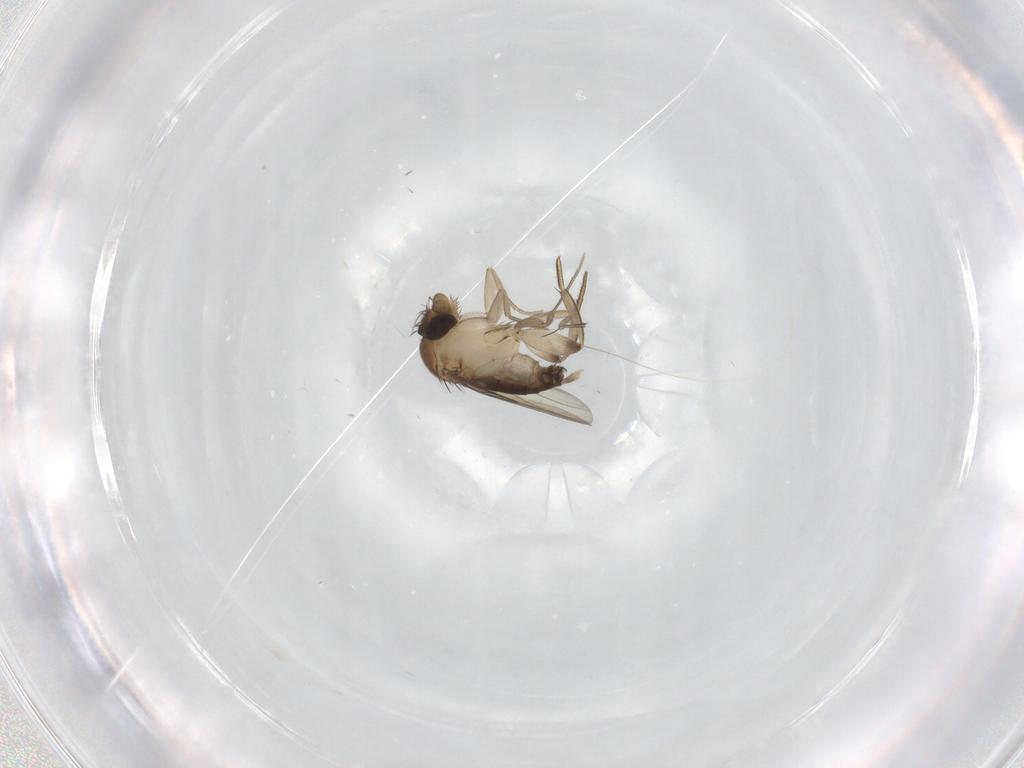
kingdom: Animalia
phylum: Arthropoda
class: Insecta
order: Diptera
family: Phoridae
